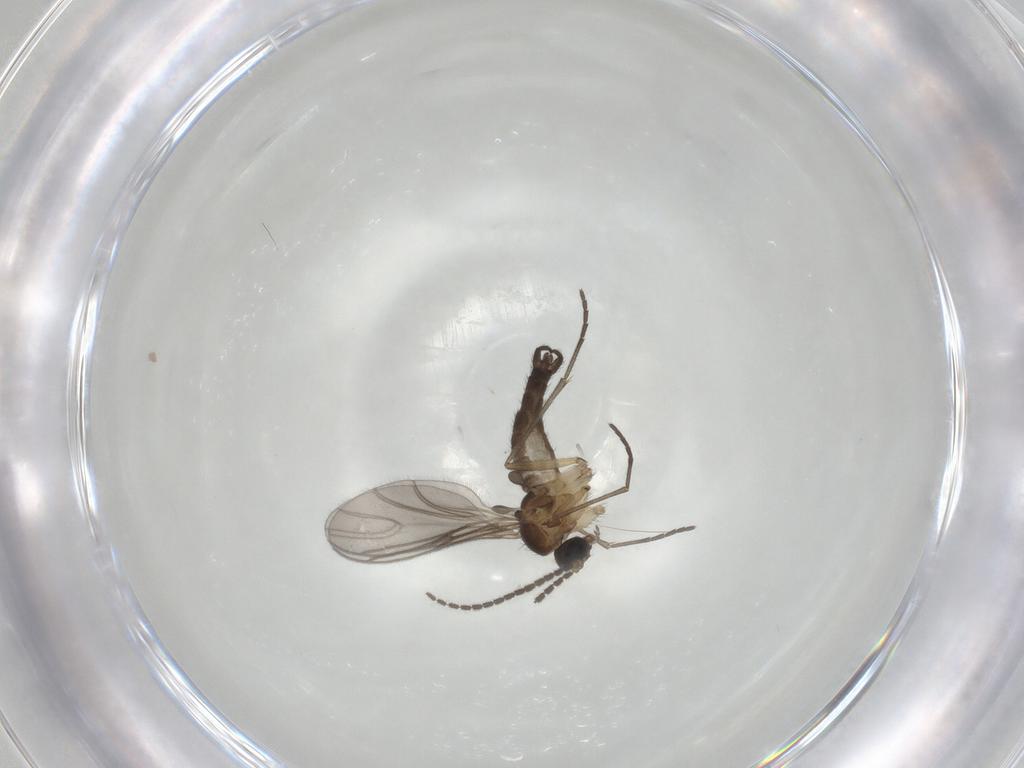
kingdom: Animalia
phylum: Arthropoda
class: Insecta
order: Diptera
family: Sciaridae
